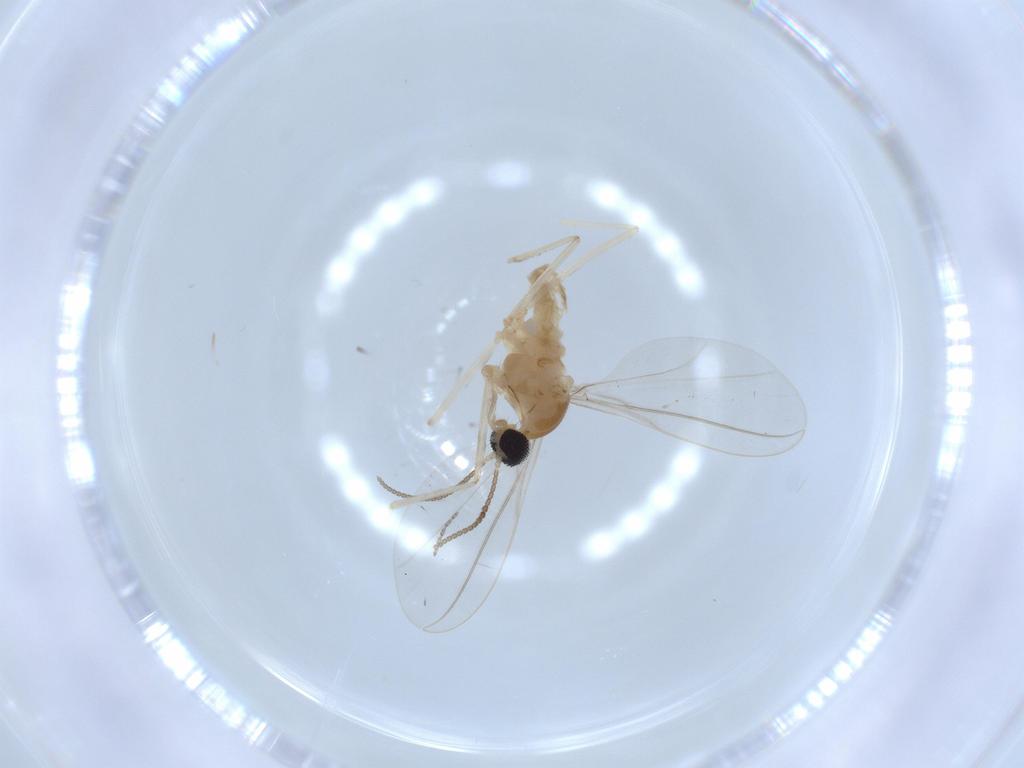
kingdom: Animalia
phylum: Arthropoda
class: Insecta
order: Diptera
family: Cecidomyiidae
